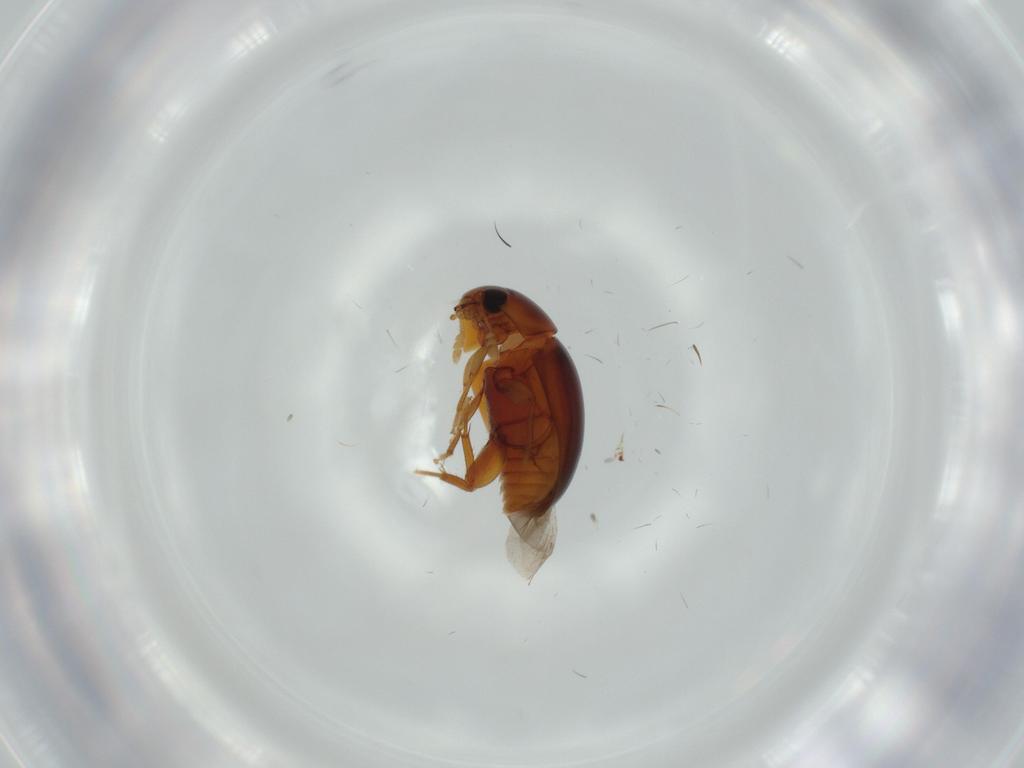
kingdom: Animalia
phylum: Arthropoda
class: Insecta
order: Coleoptera
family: Phalacridae
